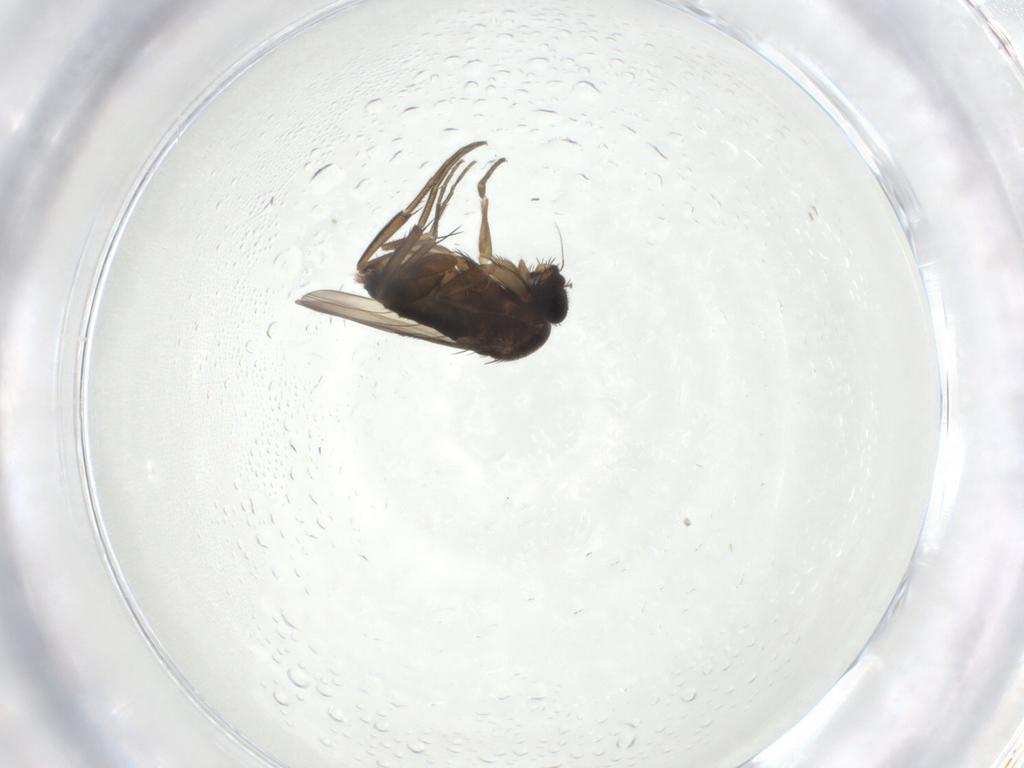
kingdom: Animalia
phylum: Arthropoda
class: Insecta
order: Diptera
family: Phoridae
